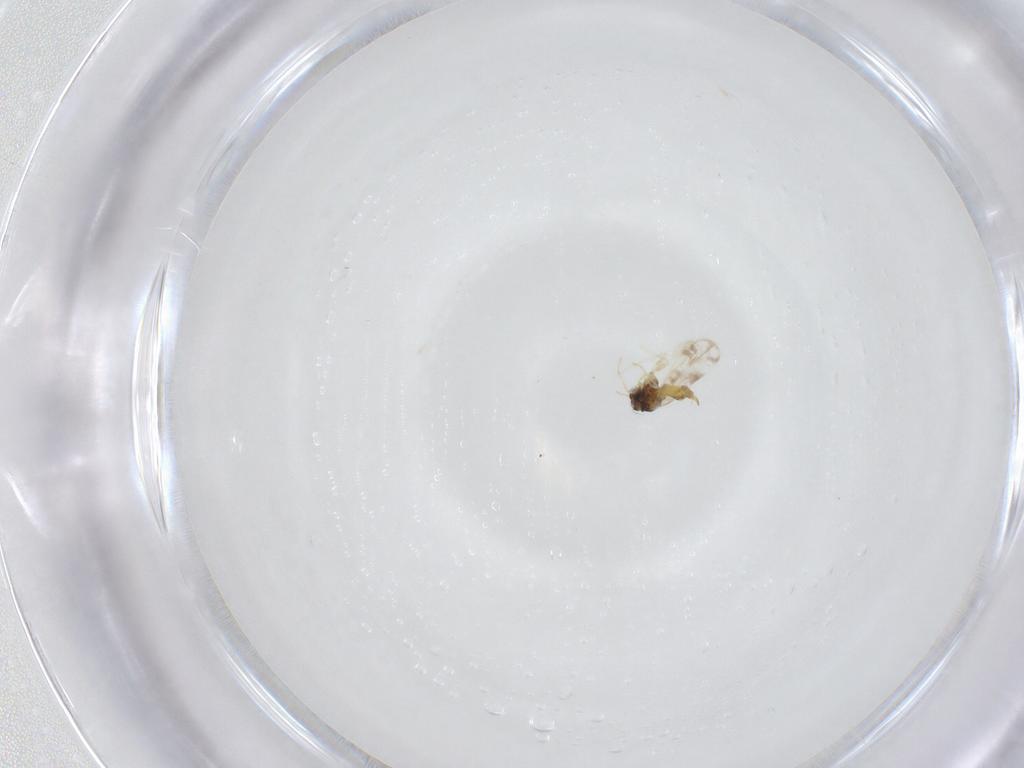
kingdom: Animalia
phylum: Arthropoda
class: Insecta
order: Hemiptera
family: Aleyrodidae
